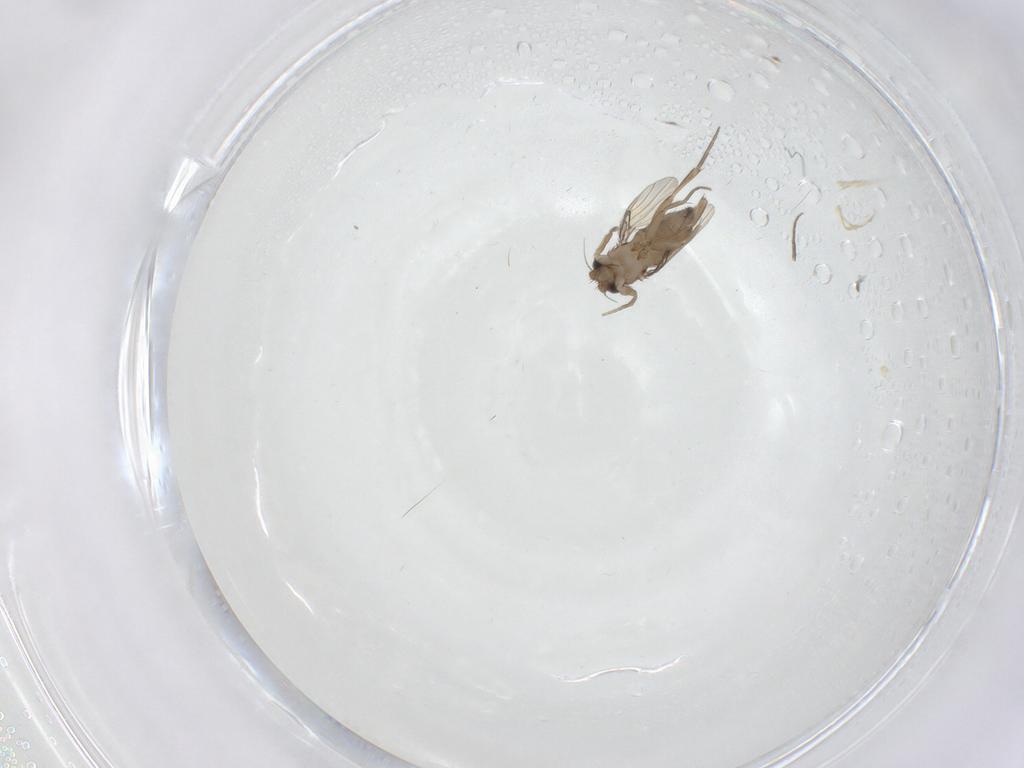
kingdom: Animalia
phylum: Arthropoda
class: Insecta
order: Diptera
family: Phoridae
